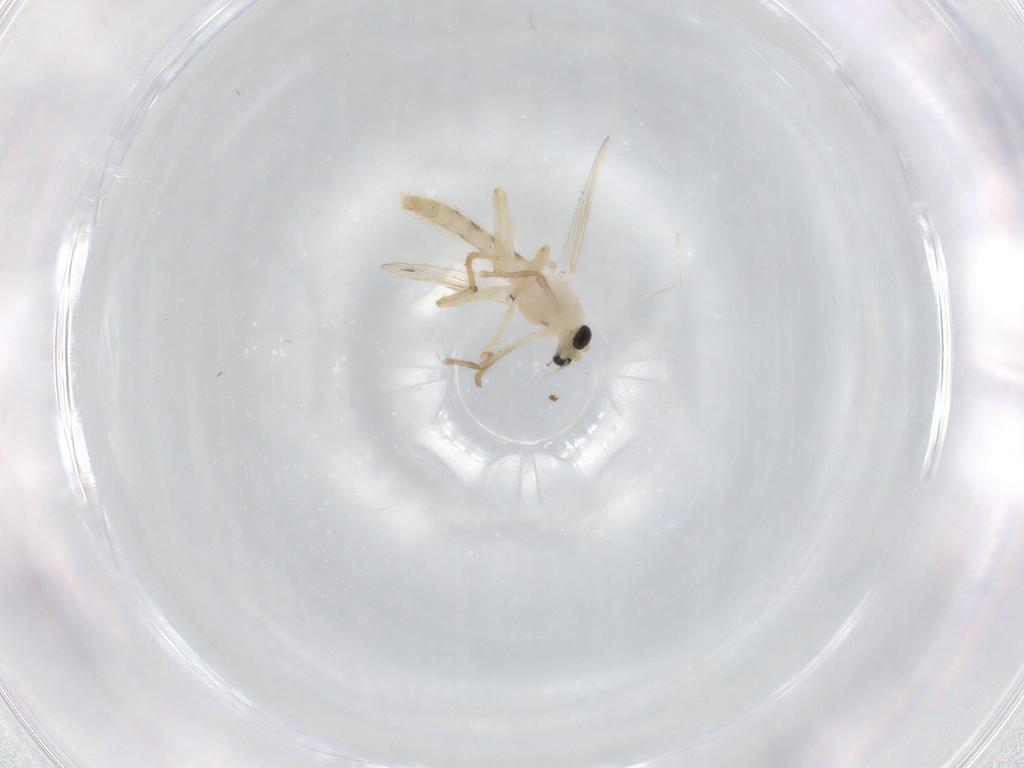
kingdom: Animalia
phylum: Arthropoda
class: Insecta
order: Diptera
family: Chironomidae
